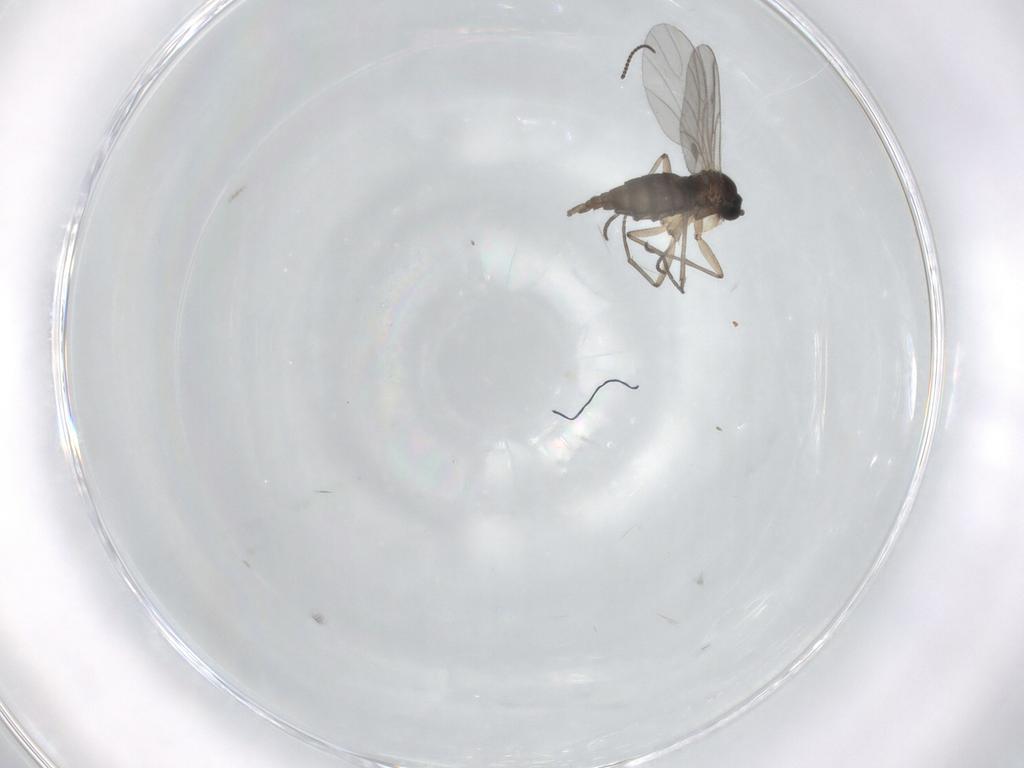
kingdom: Animalia
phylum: Arthropoda
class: Insecta
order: Diptera
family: Sciaridae
